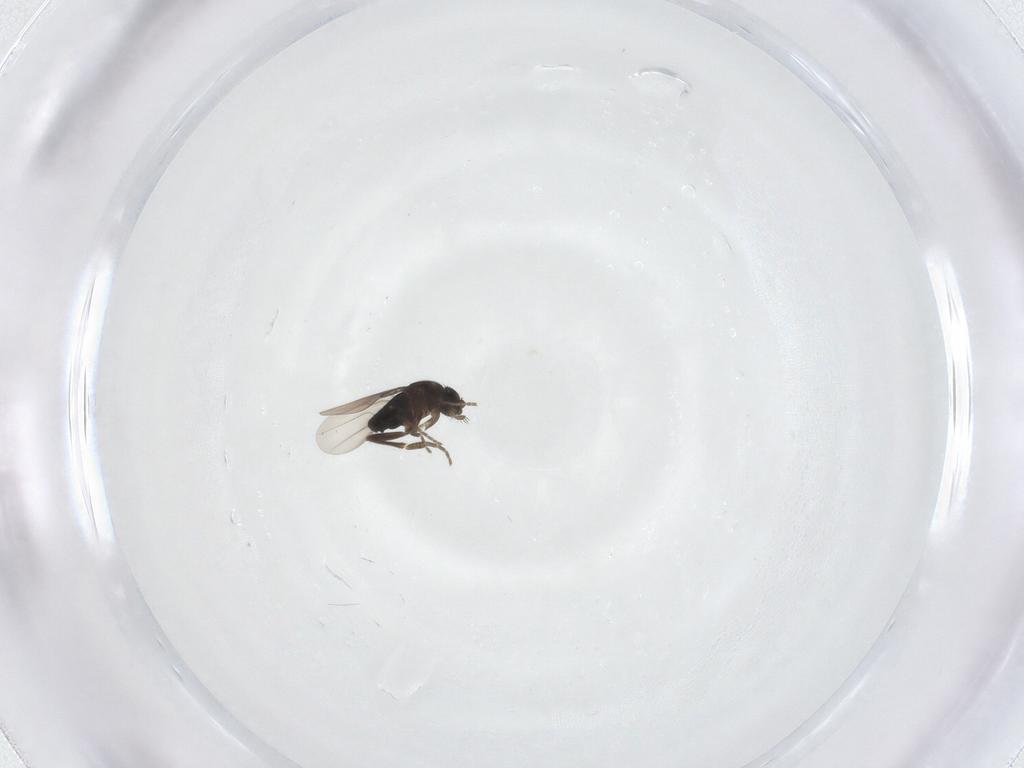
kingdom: Animalia
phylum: Arthropoda
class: Insecta
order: Diptera
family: Phoridae
